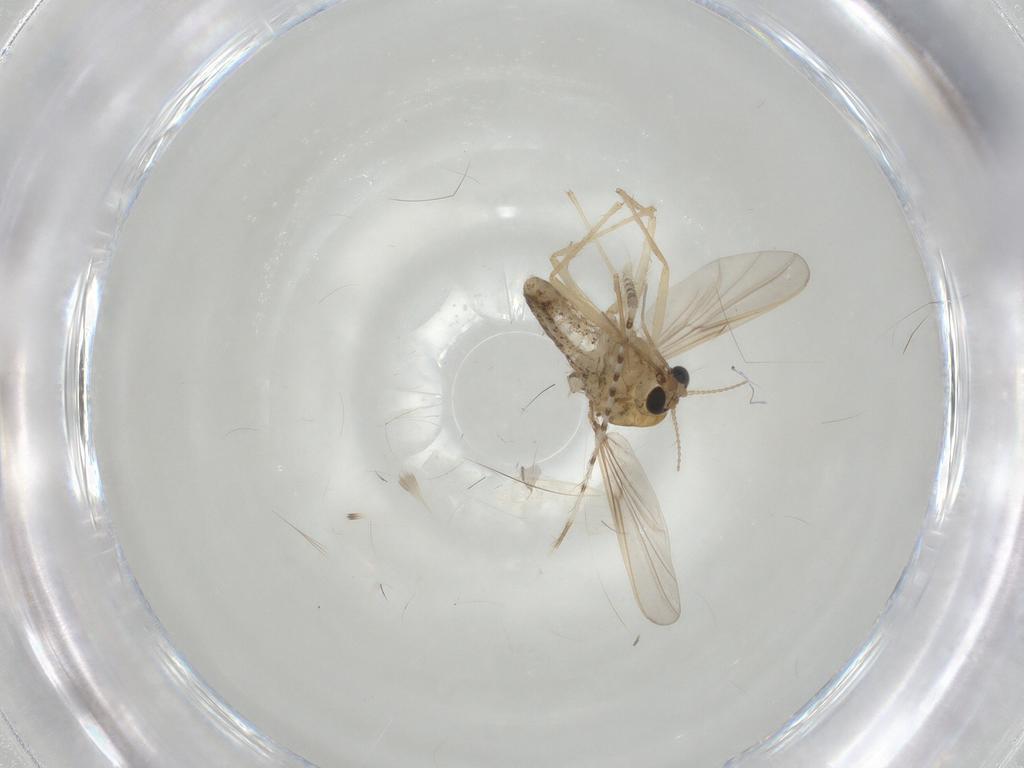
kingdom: Animalia
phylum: Arthropoda
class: Insecta
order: Diptera
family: Chaoboridae
